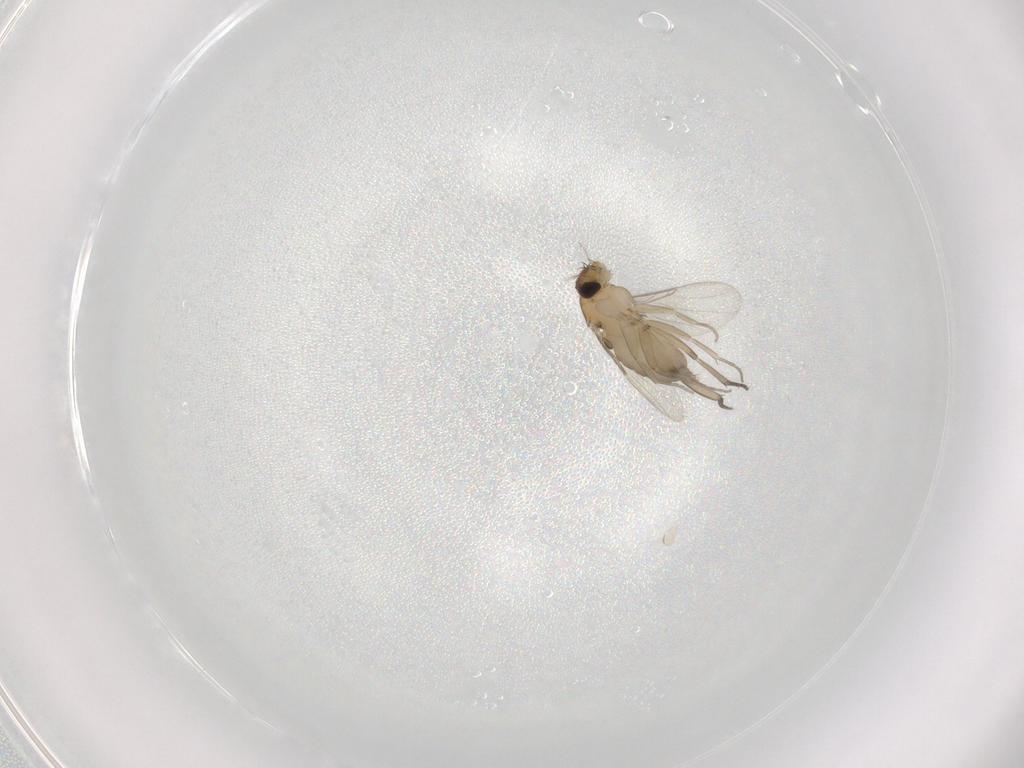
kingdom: Animalia
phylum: Arthropoda
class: Insecta
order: Diptera
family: Phoridae
